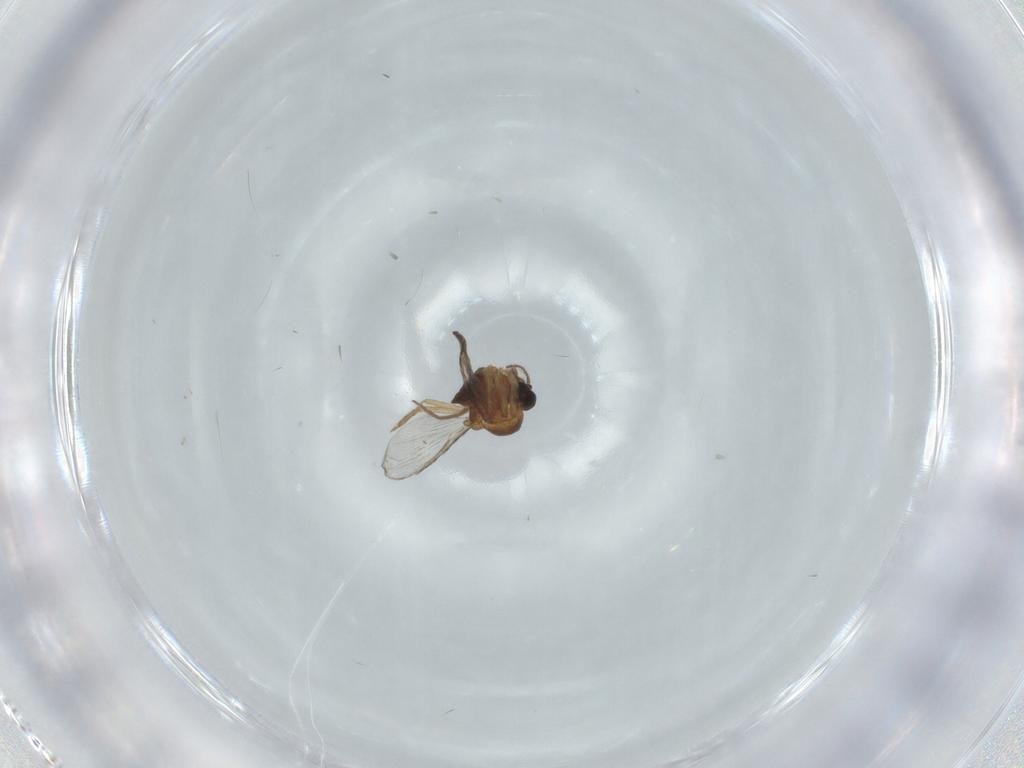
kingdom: Animalia
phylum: Arthropoda
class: Insecta
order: Diptera
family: Chironomidae
